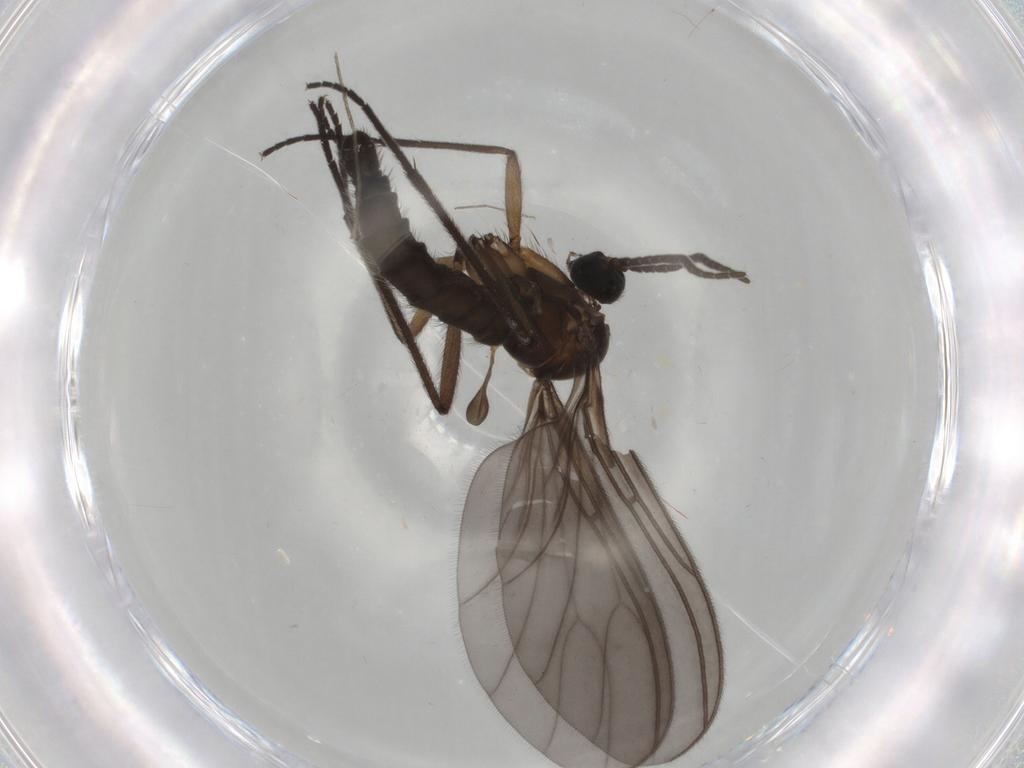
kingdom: Animalia
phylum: Arthropoda
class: Insecta
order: Diptera
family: Cecidomyiidae
